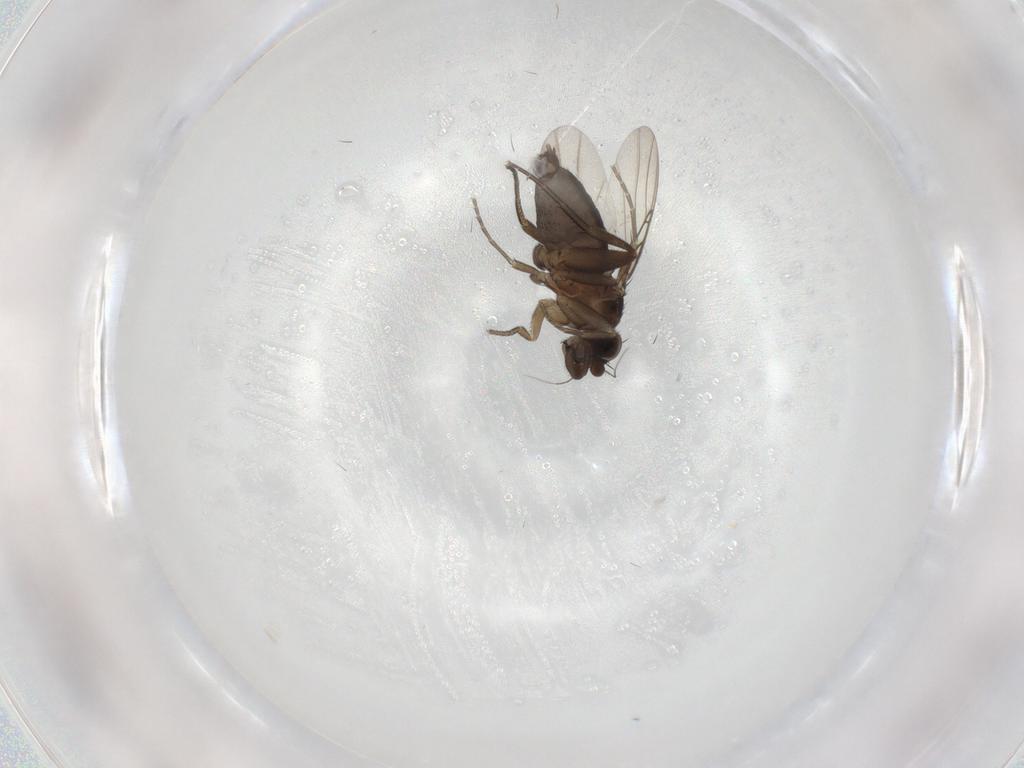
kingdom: Animalia
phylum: Arthropoda
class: Insecta
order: Diptera
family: Phoridae
